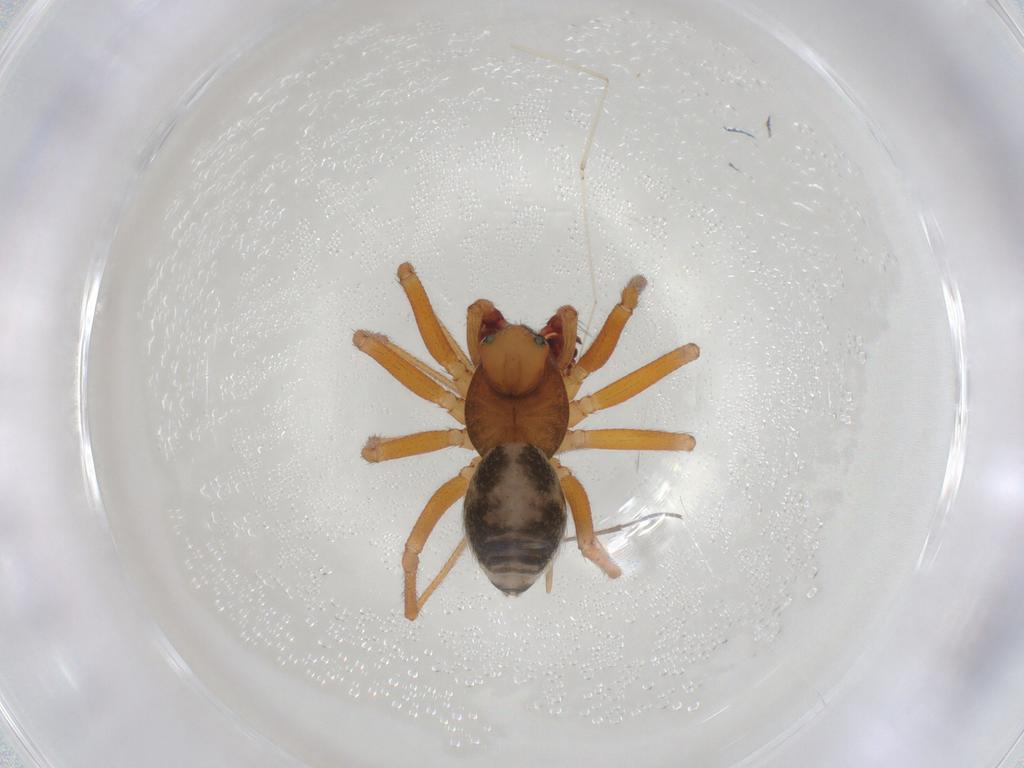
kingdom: Animalia
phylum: Arthropoda
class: Arachnida
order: Araneae
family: Linyphiidae
